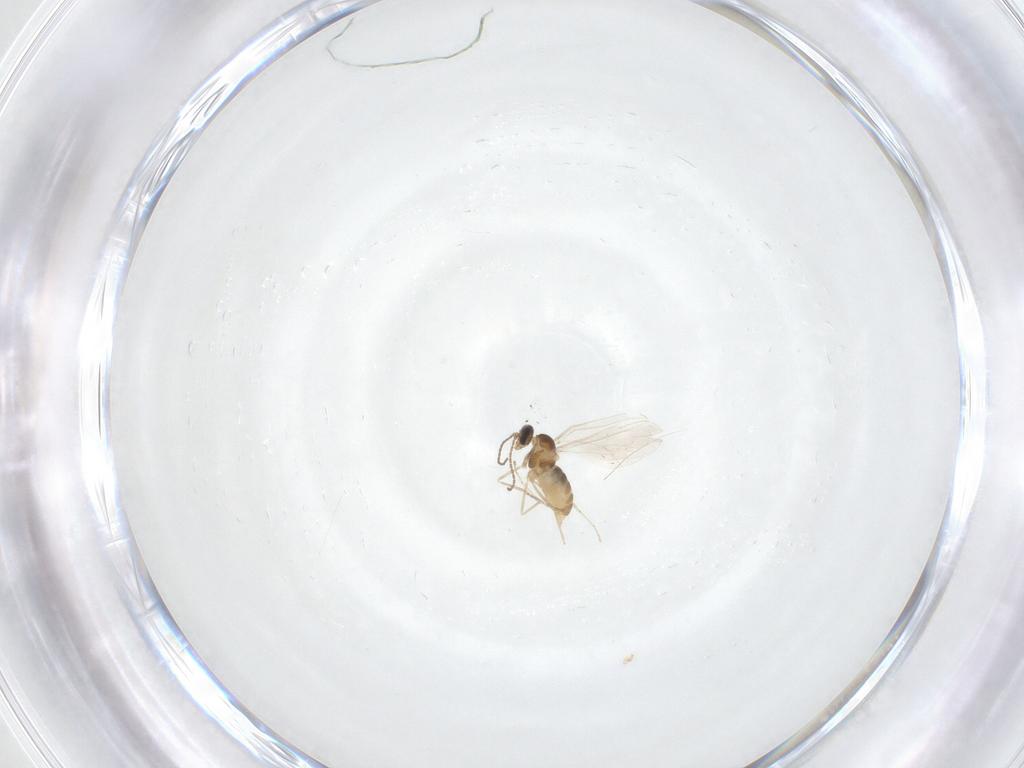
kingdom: Animalia
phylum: Arthropoda
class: Insecta
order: Diptera
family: Cecidomyiidae
